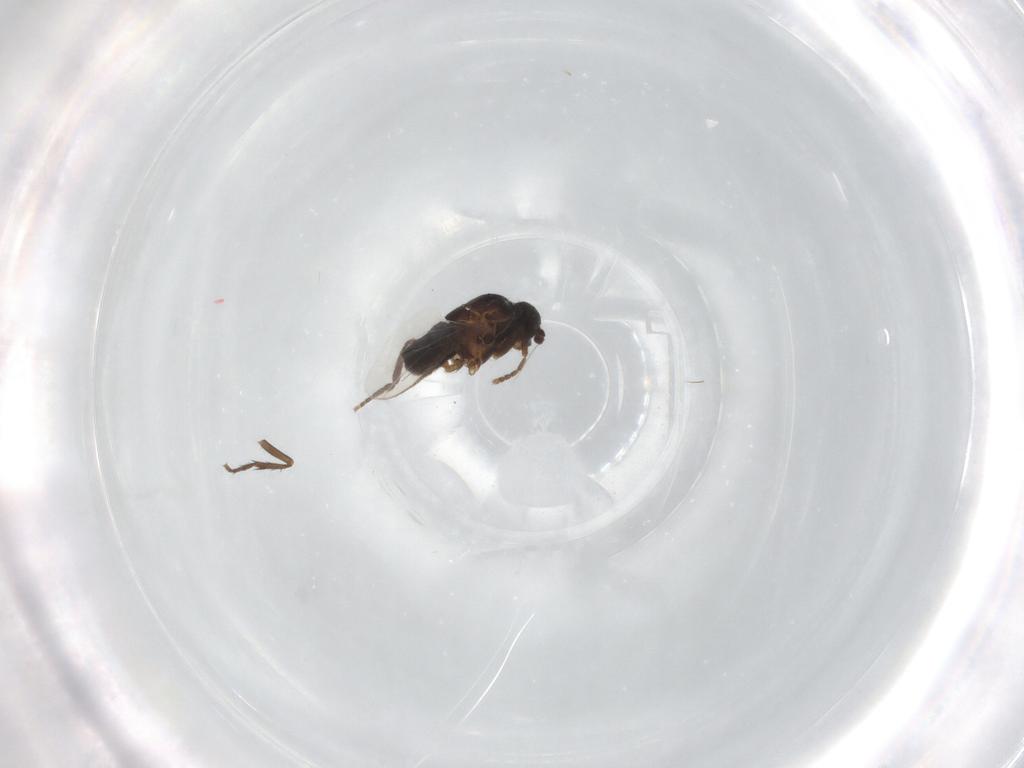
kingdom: Animalia
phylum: Arthropoda
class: Insecta
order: Diptera
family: Sphaeroceridae
